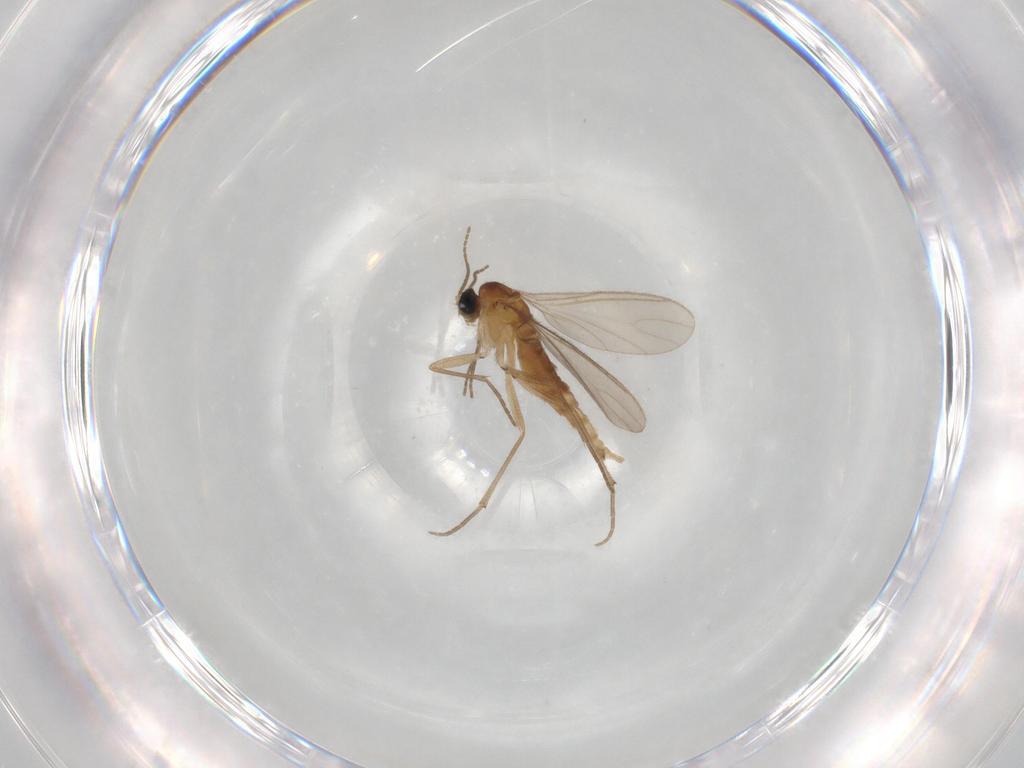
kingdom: Animalia
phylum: Arthropoda
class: Insecta
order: Diptera
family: Sciaridae
